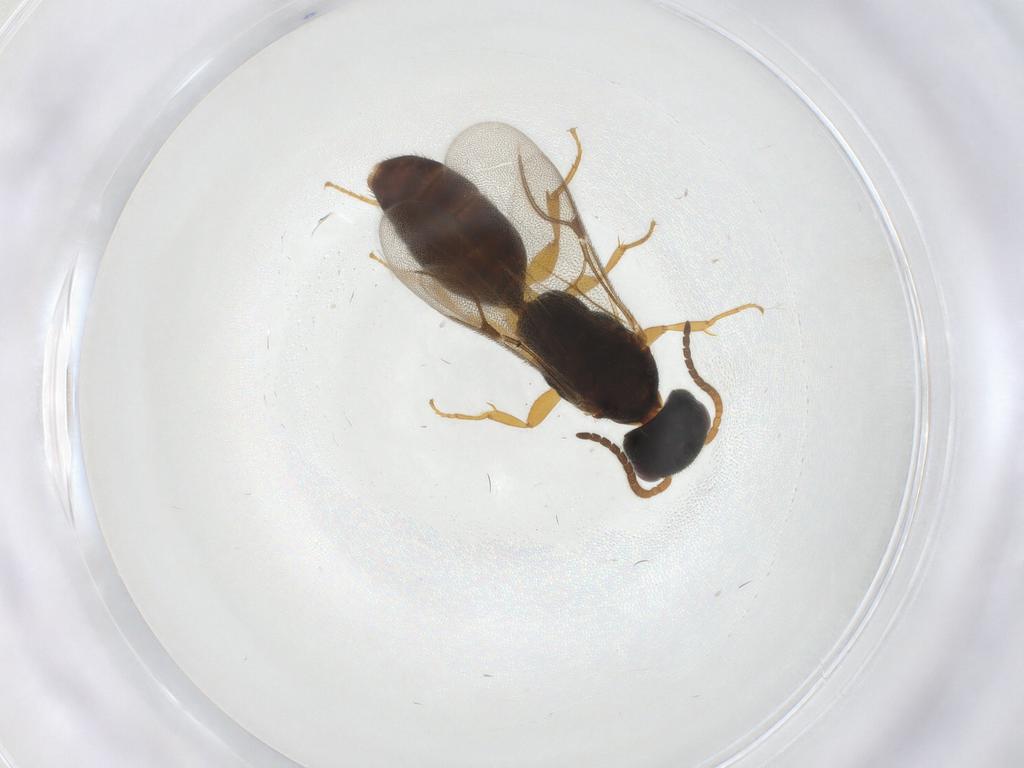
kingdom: Animalia
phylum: Arthropoda
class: Insecta
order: Hymenoptera
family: Bethylidae
